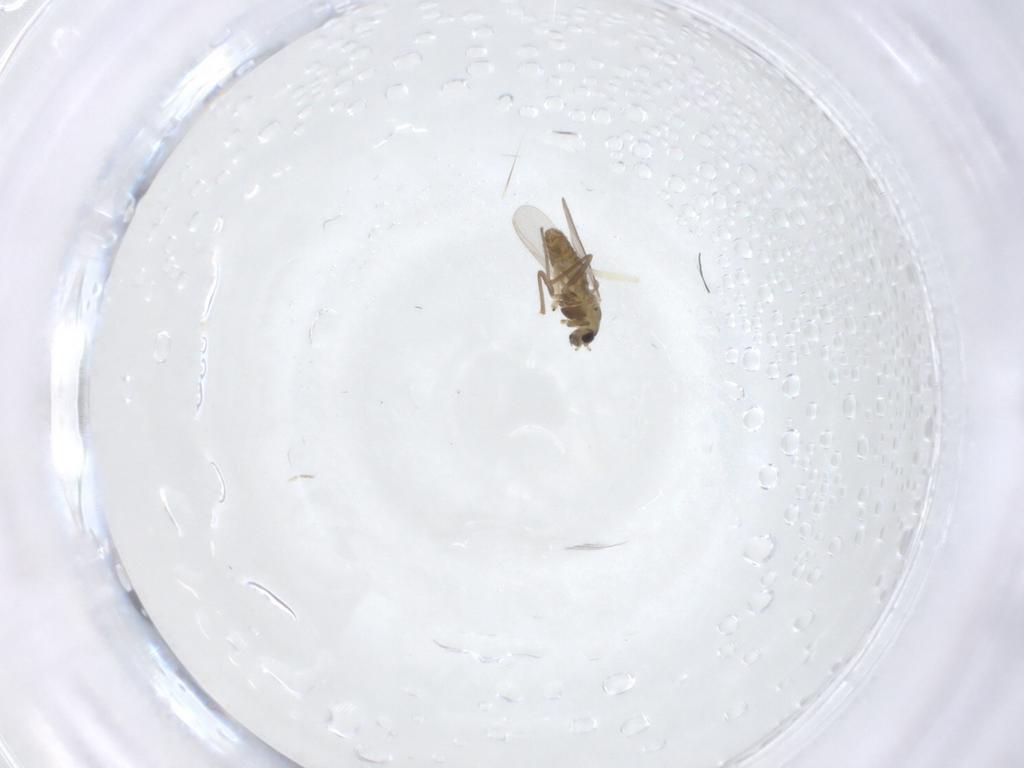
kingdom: Animalia
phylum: Arthropoda
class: Insecta
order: Diptera
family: Chironomidae
